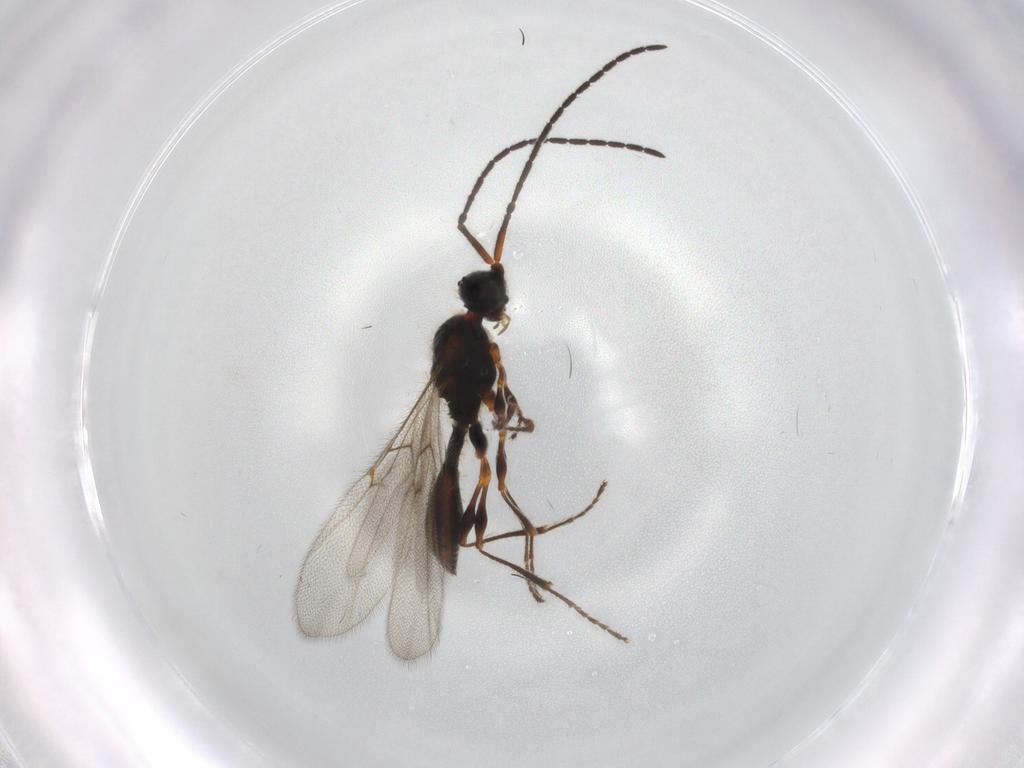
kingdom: Animalia
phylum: Arthropoda
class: Insecta
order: Hymenoptera
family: Diapriidae
